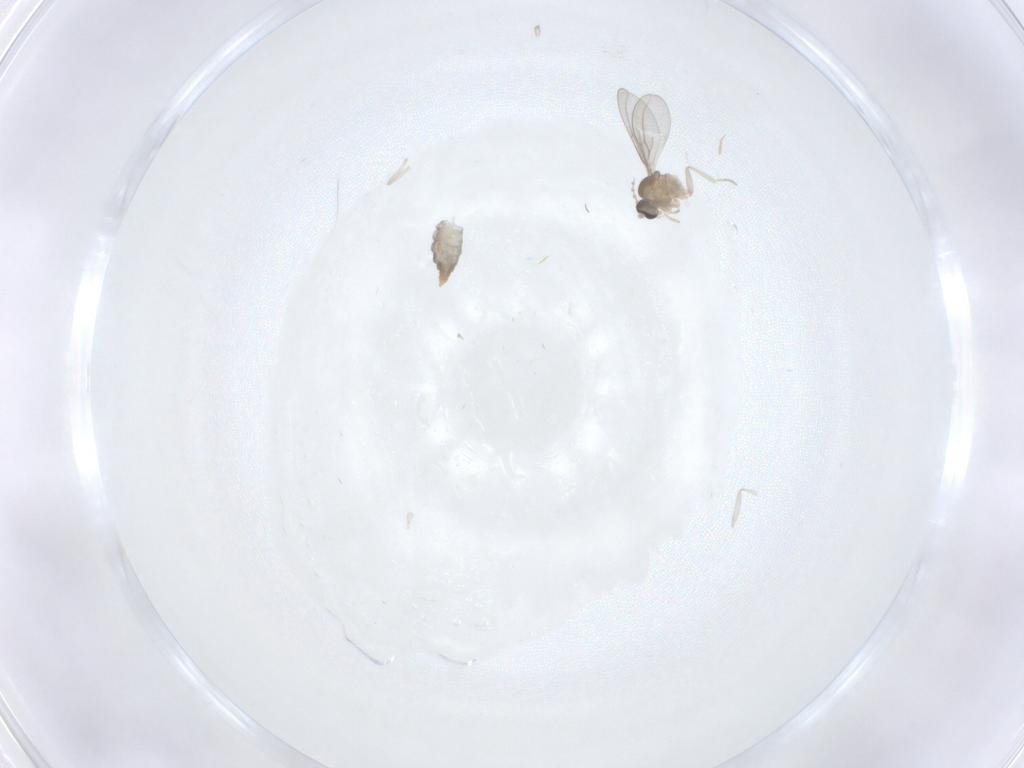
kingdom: Animalia
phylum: Arthropoda
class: Insecta
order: Diptera
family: Cecidomyiidae
